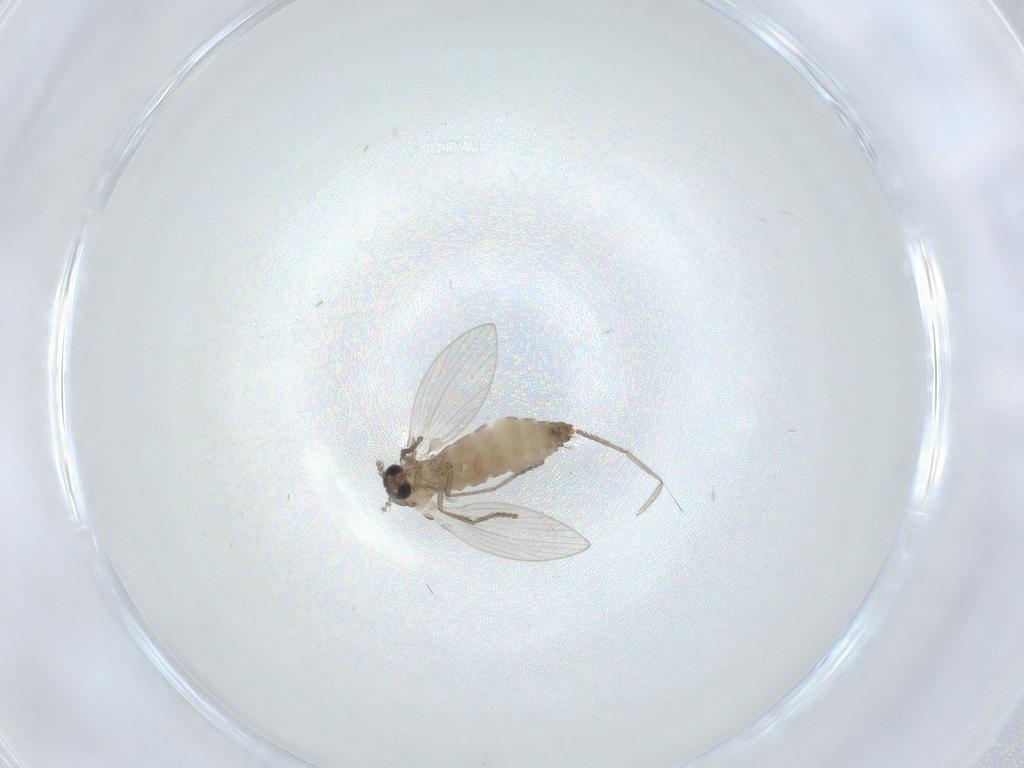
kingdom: Animalia
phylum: Arthropoda
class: Insecta
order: Diptera
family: Psychodidae
